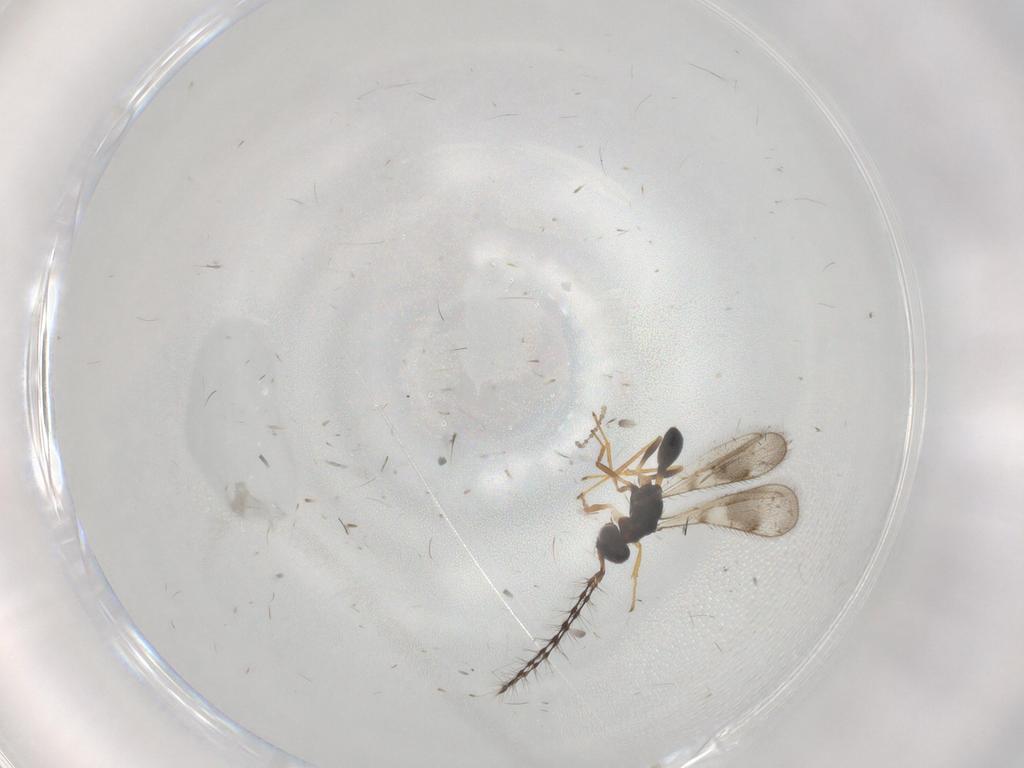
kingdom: Animalia
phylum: Arthropoda
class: Insecta
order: Hymenoptera
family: Diparidae
